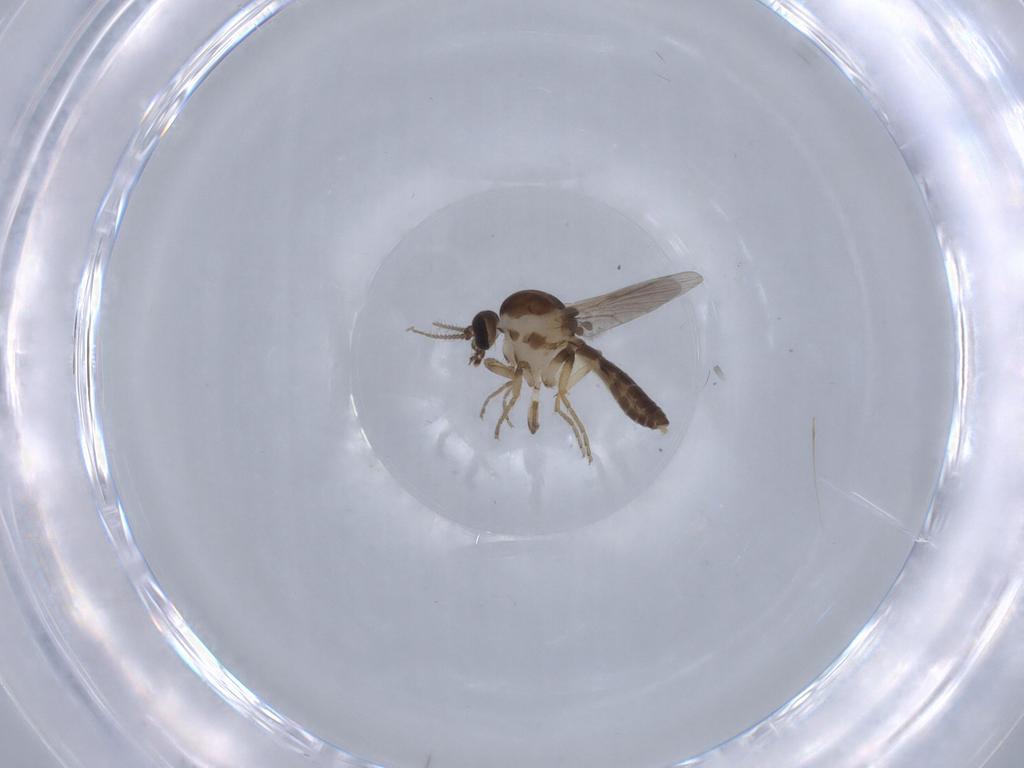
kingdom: Animalia
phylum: Arthropoda
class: Insecta
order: Diptera
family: Ceratopogonidae
